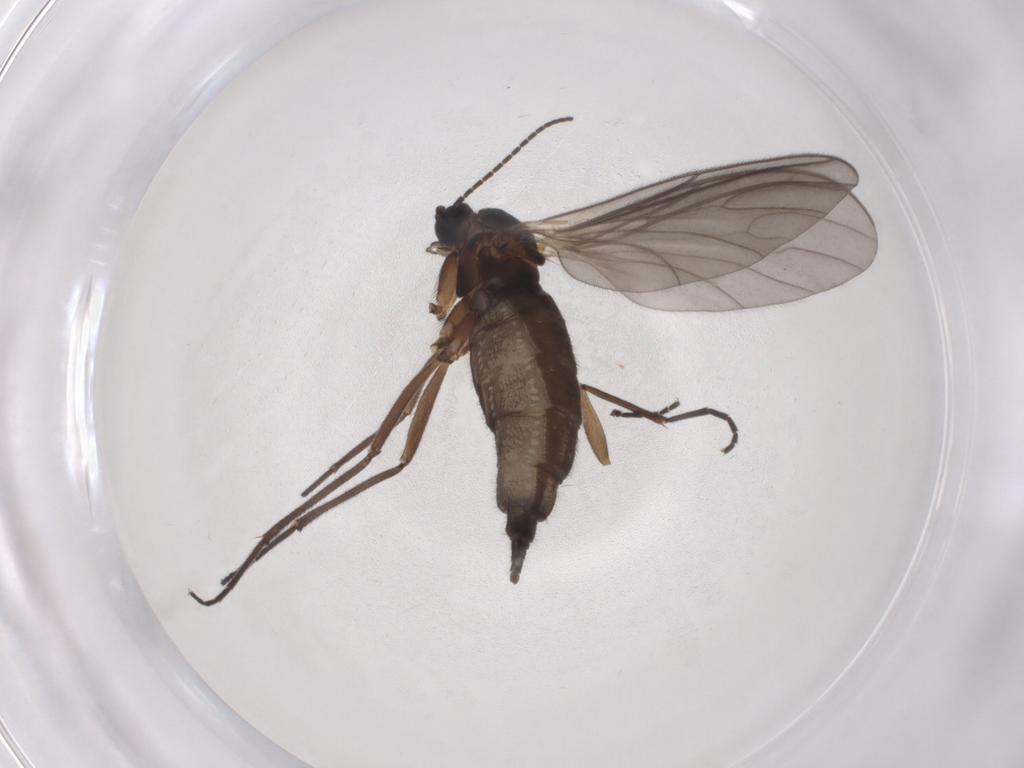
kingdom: Animalia
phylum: Arthropoda
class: Insecta
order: Diptera
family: Sciaridae
